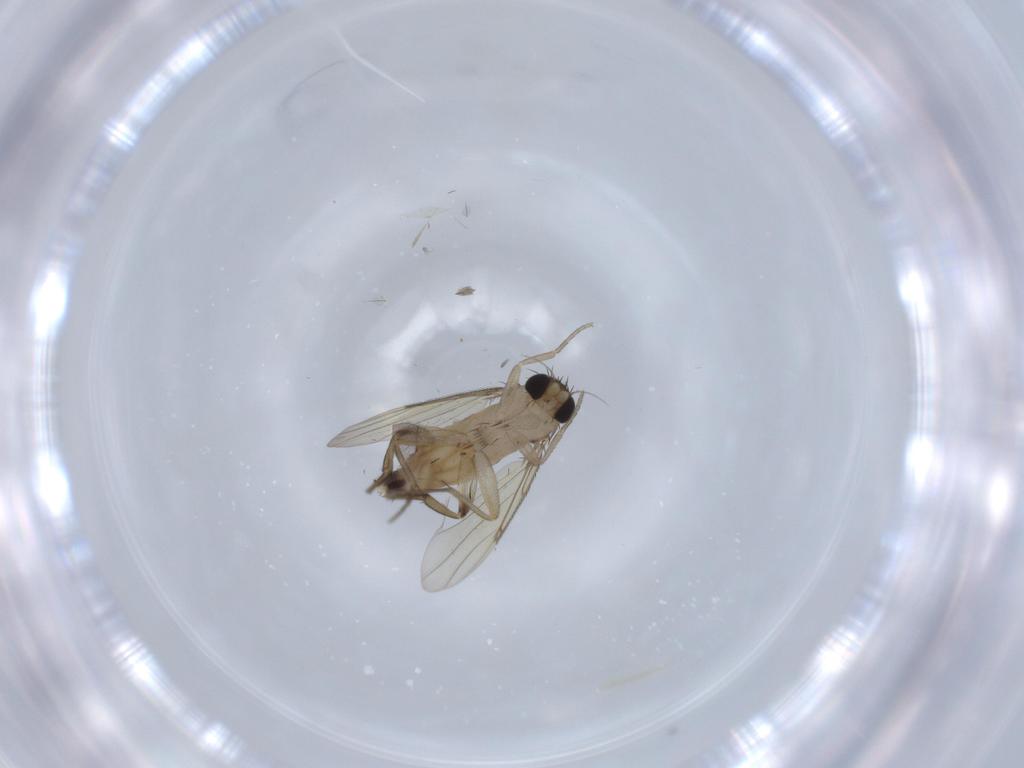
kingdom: Animalia
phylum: Arthropoda
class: Insecta
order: Diptera
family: Phoridae
